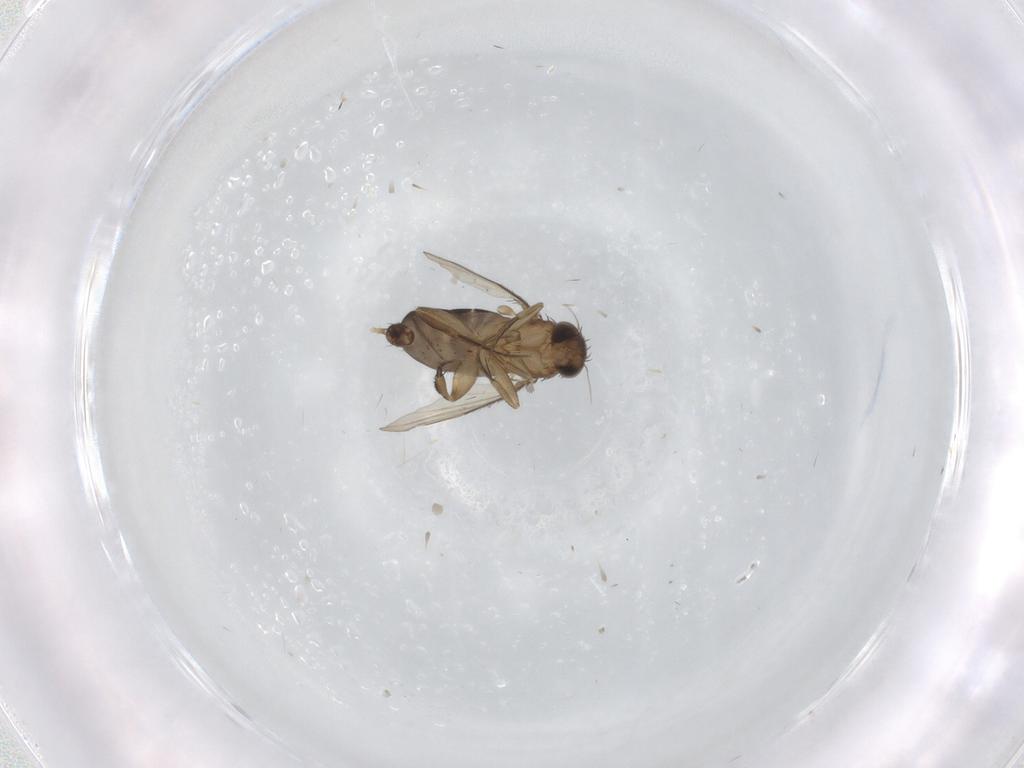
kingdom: Animalia
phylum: Arthropoda
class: Insecta
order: Diptera
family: Phoridae
